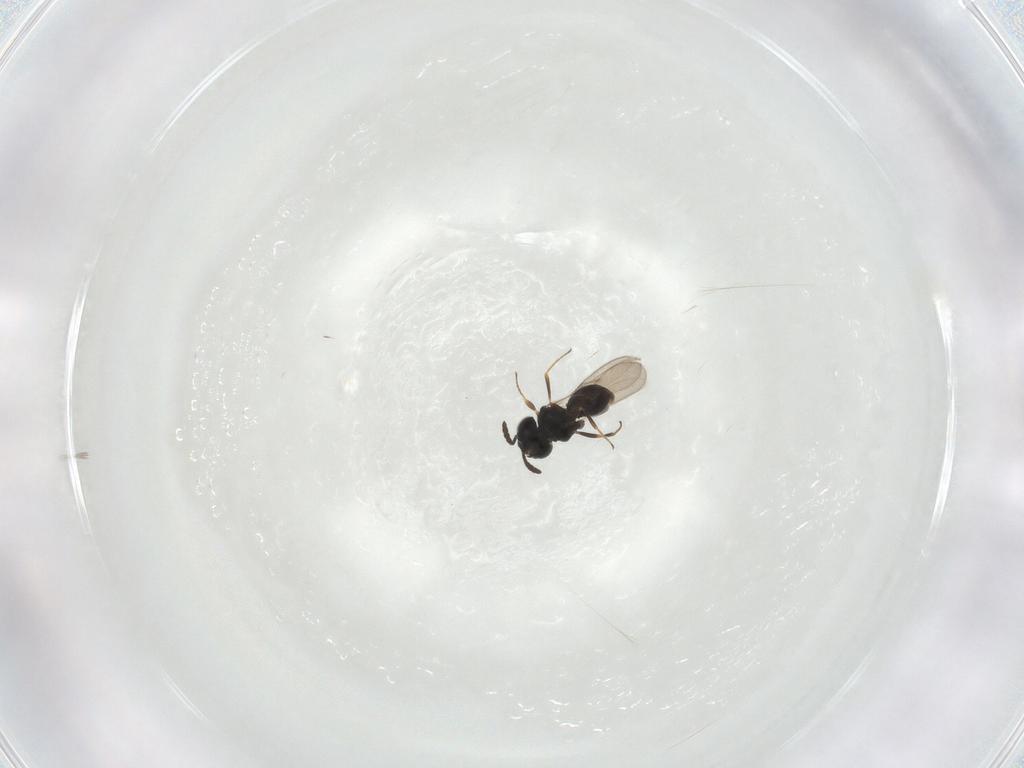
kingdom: Animalia
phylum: Arthropoda
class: Insecta
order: Hymenoptera
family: Scelionidae
